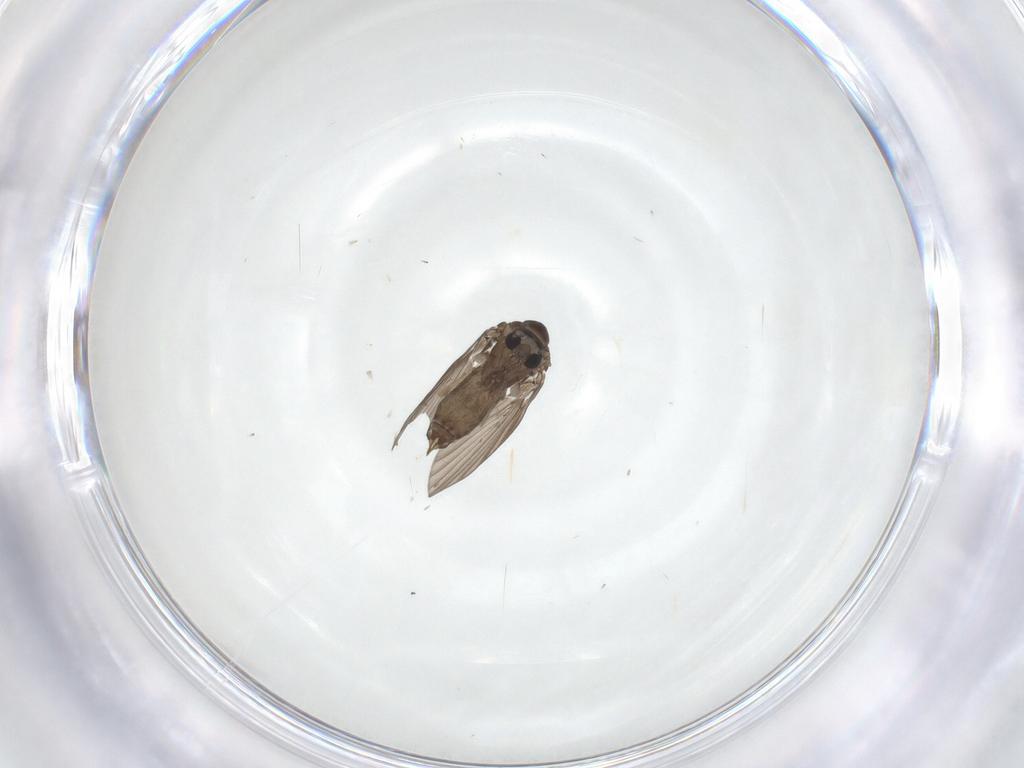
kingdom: Animalia
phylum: Arthropoda
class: Insecta
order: Diptera
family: Psychodidae
